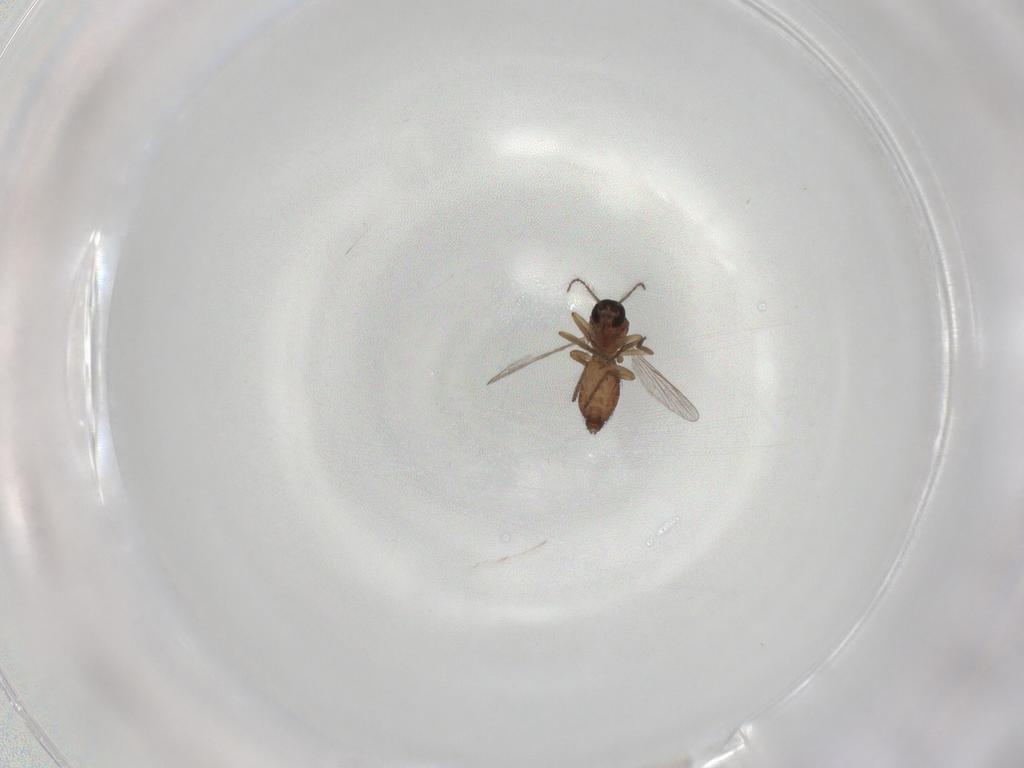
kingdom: Animalia
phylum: Arthropoda
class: Insecta
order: Diptera
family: Ceratopogonidae
